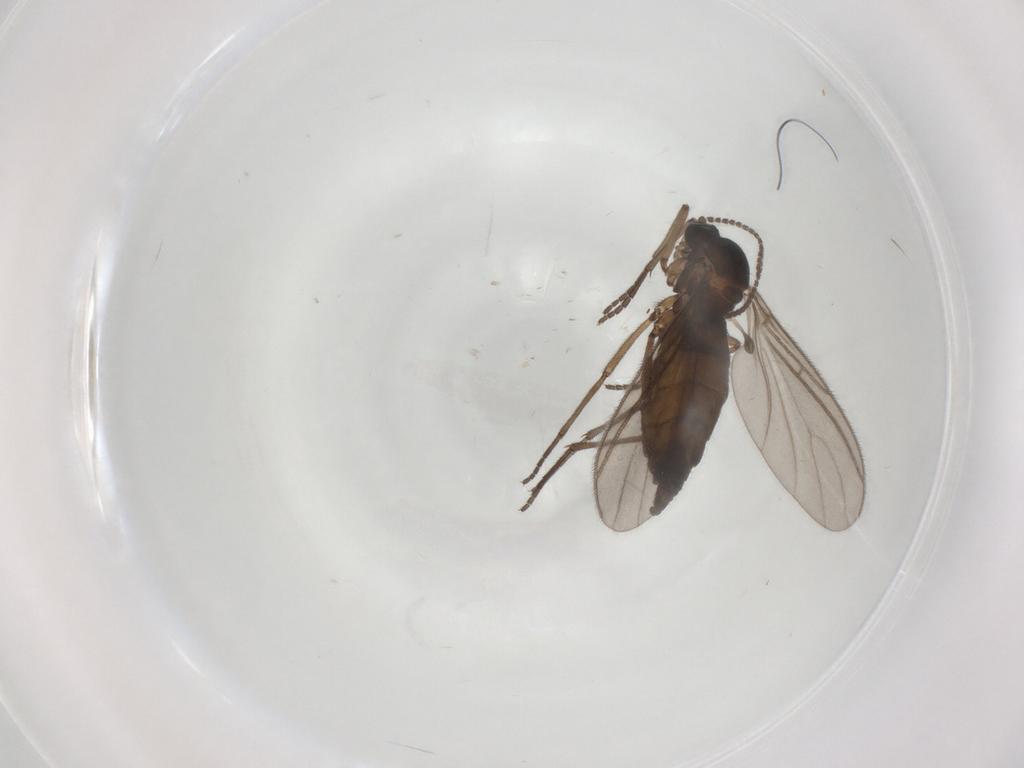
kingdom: Animalia
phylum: Arthropoda
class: Insecta
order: Diptera
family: Sciaridae
